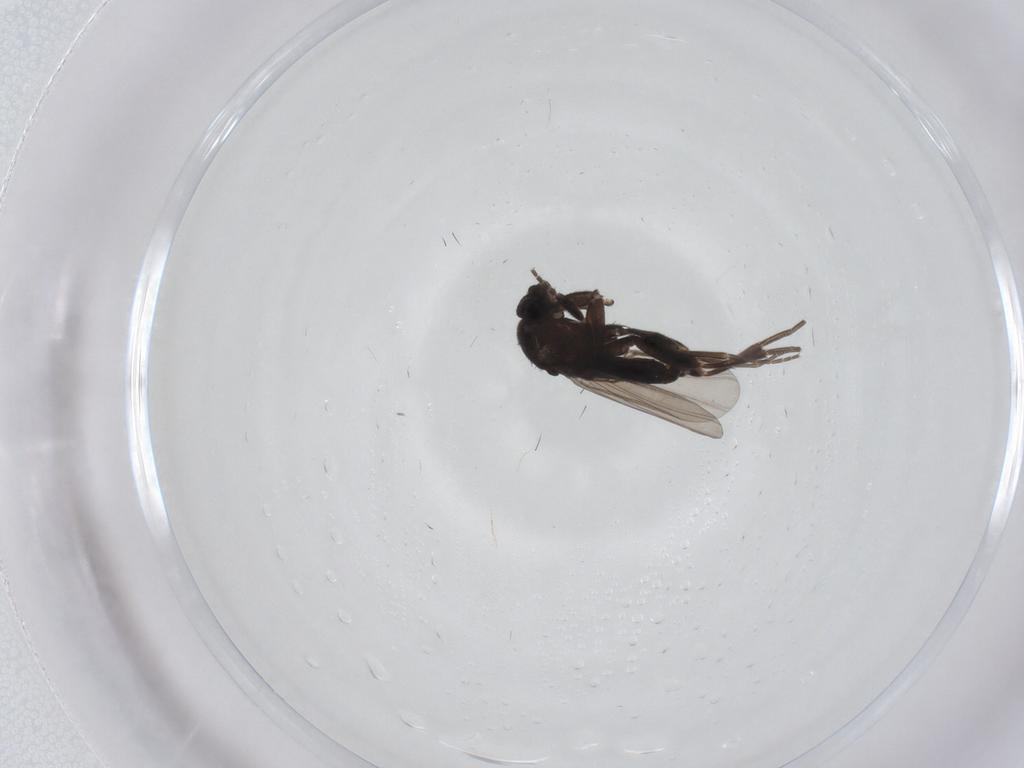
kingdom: Animalia
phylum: Arthropoda
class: Insecta
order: Diptera
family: Phoridae
